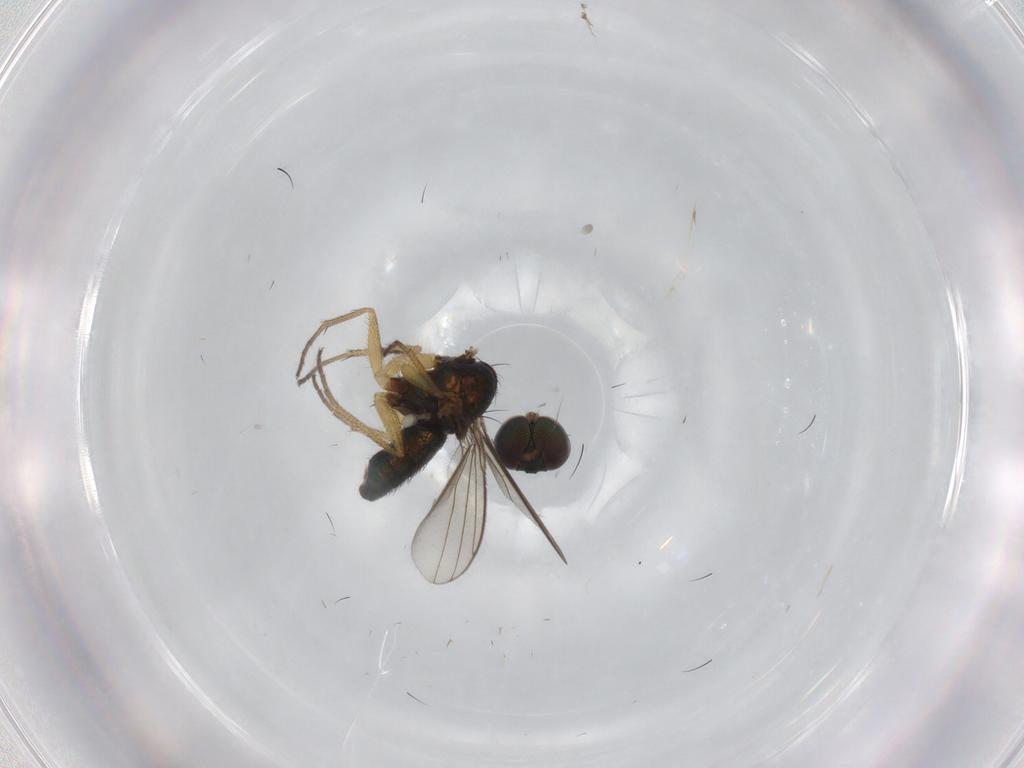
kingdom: Animalia
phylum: Arthropoda
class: Insecta
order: Diptera
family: Dolichopodidae
